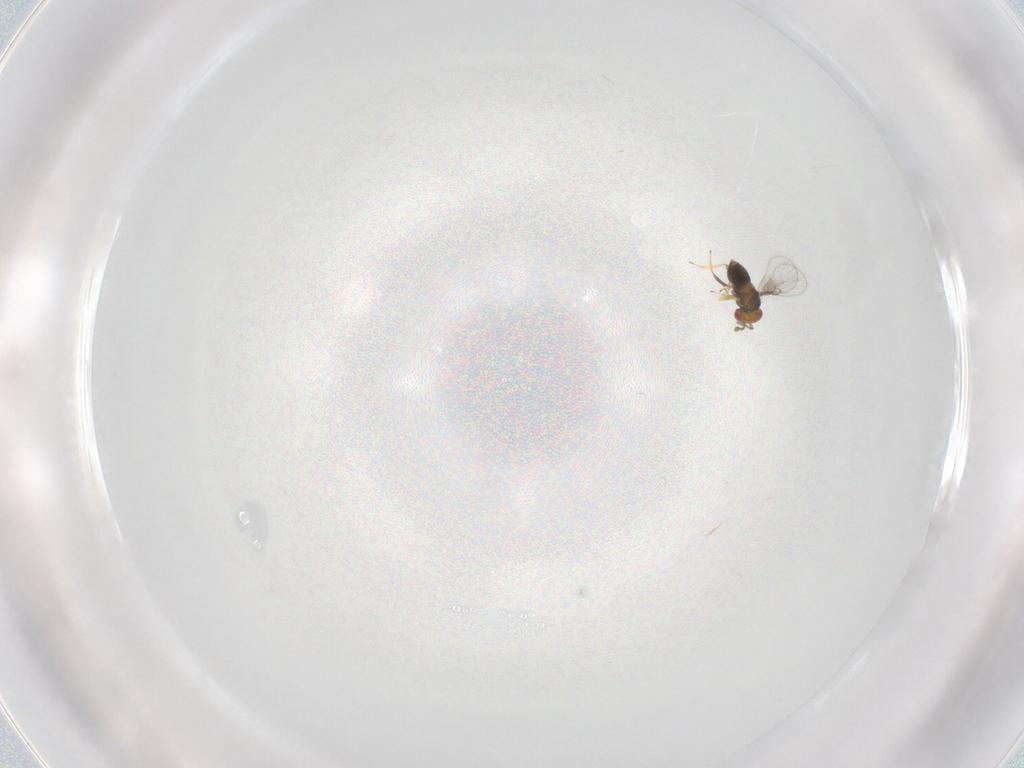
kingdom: Animalia
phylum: Arthropoda
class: Insecta
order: Hymenoptera
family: Trichogrammatidae
